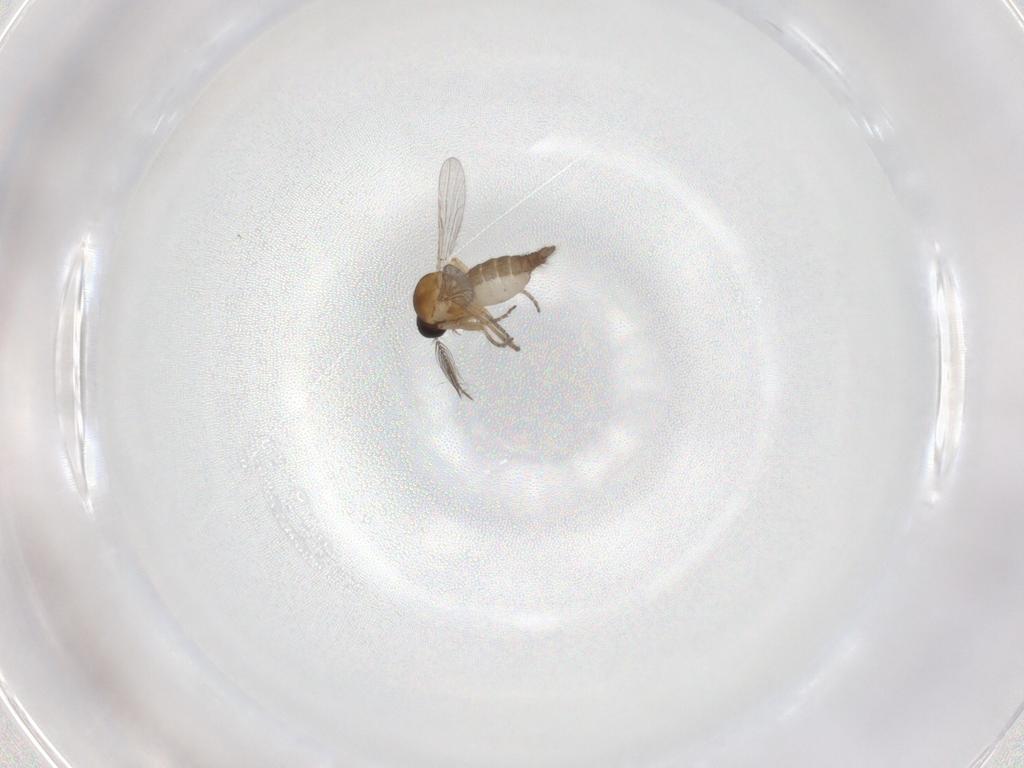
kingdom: Animalia
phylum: Arthropoda
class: Insecta
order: Diptera
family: Ceratopogonidae
